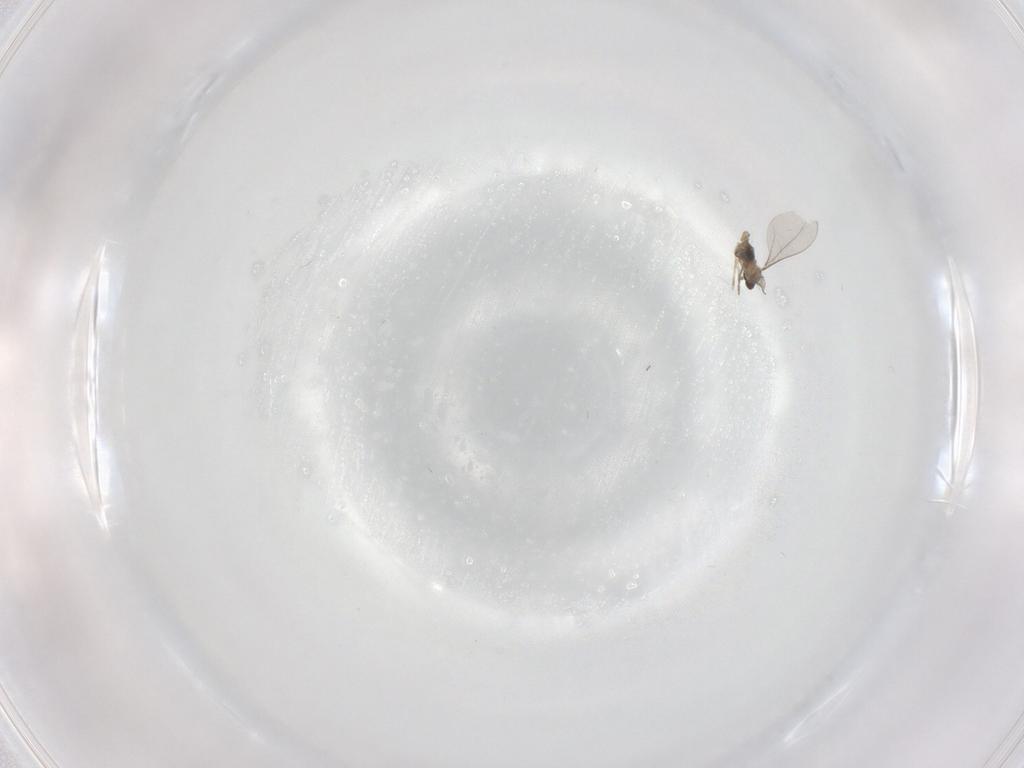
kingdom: Animalia
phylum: Arthropoda
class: Insecta
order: Diptera
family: Cecidomyiidae
